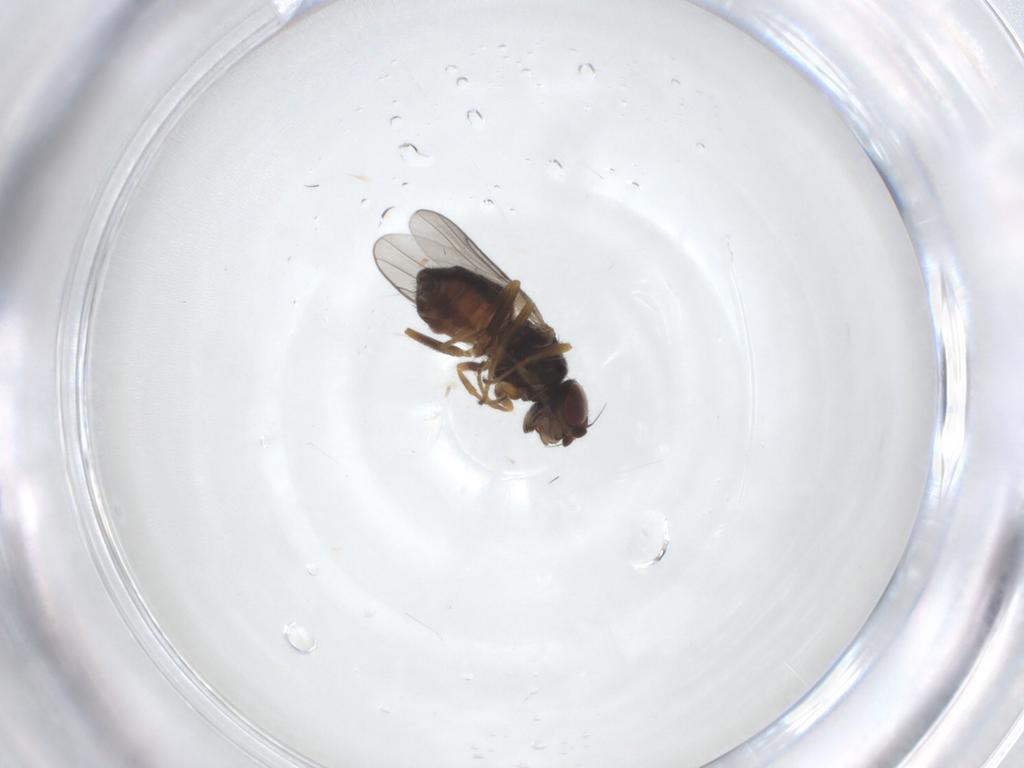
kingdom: Animalia
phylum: Arthropoda
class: Insecta
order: Diptera
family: Chloropidae
